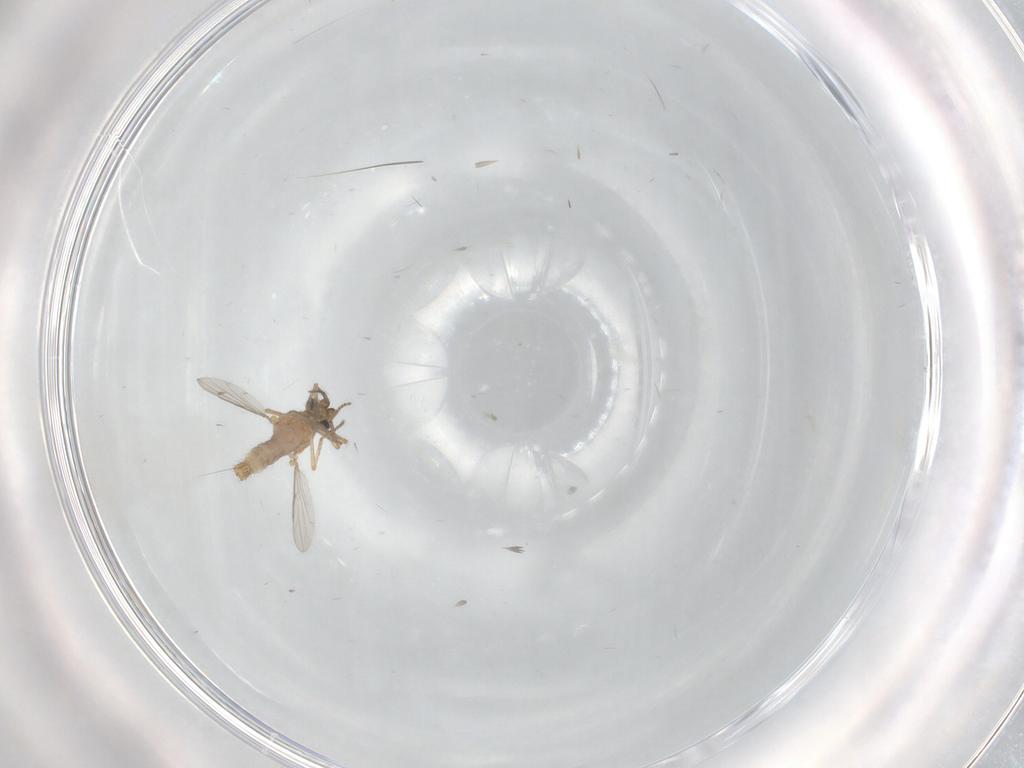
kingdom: Animalia
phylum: Arthropoda
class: Insecta
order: Diptera
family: Ceratopogonidae
